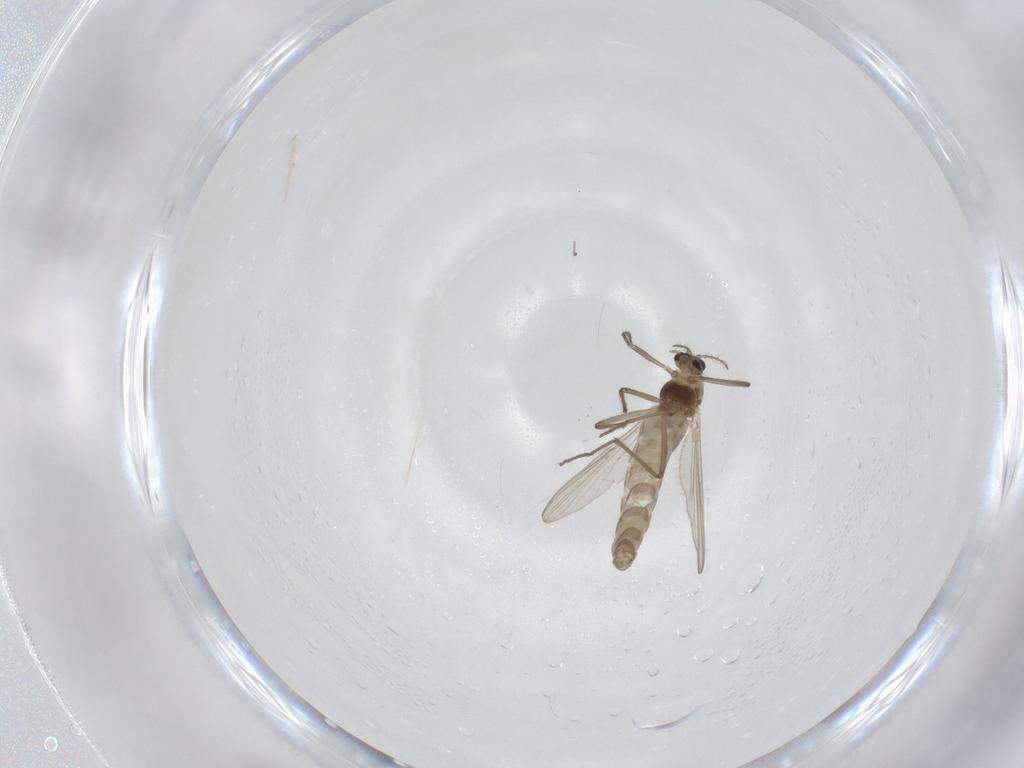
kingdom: Animalia
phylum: Arthropoda
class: Insecta
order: Diptera
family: Chironomidae
